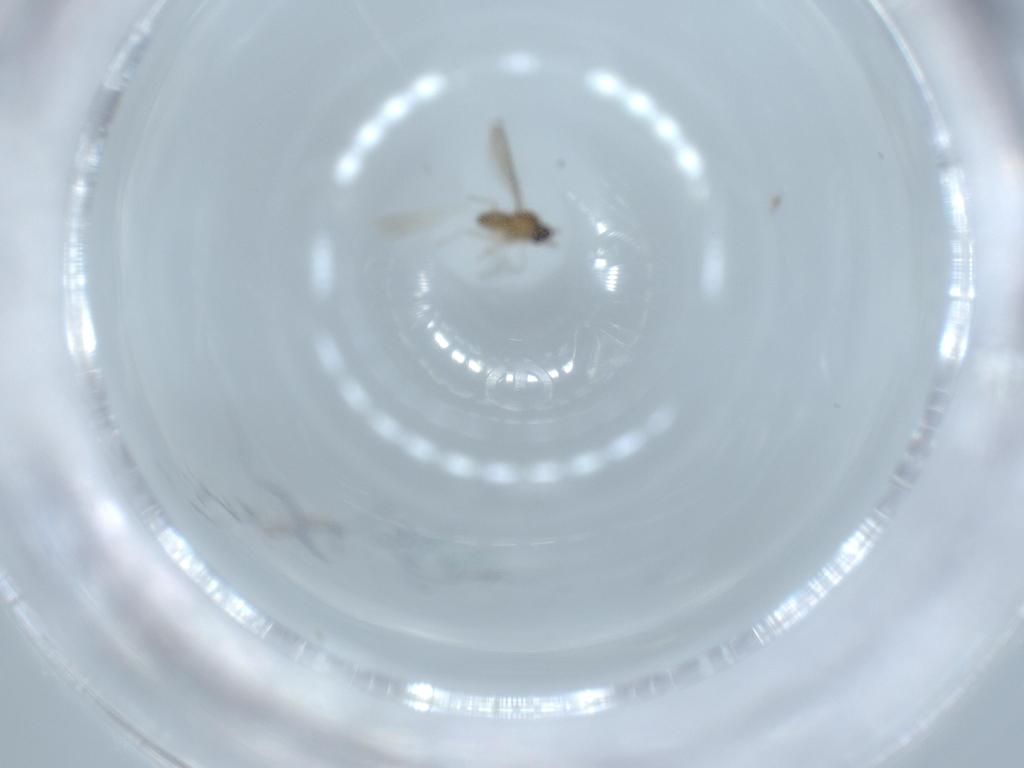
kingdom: Animalia
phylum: Arthropoda
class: Insecta
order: Diptera
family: Cecidomyiidae
